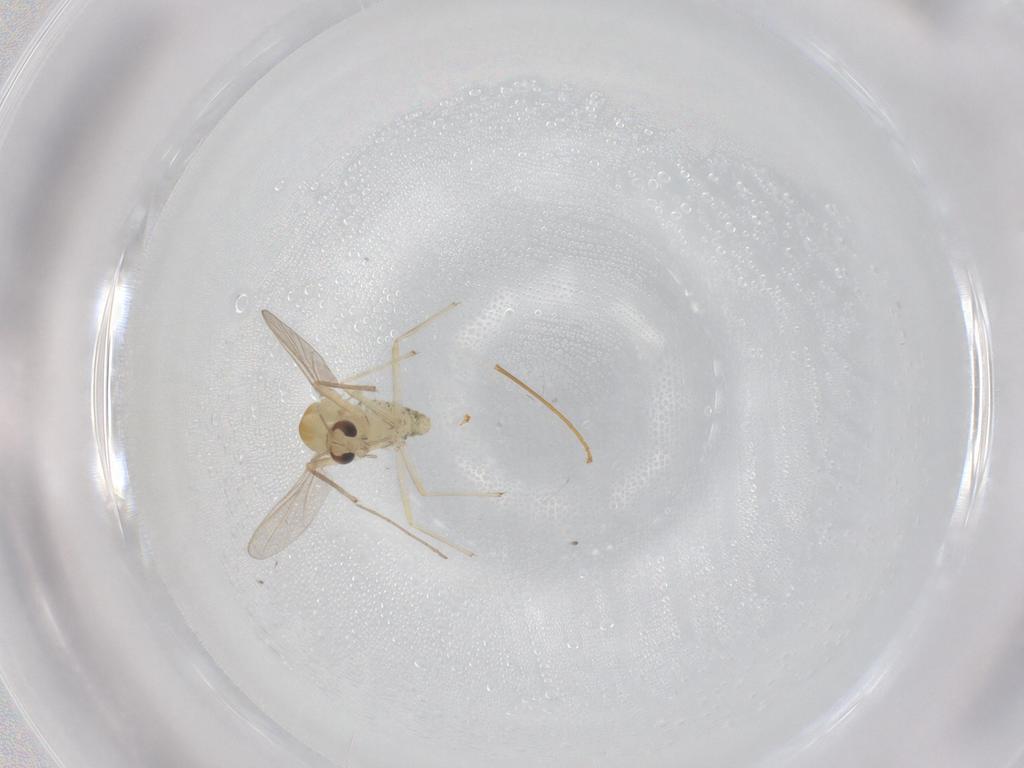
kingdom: Animalia
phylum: Arthropoda
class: Insecta
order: Diptera
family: Chironomidae
